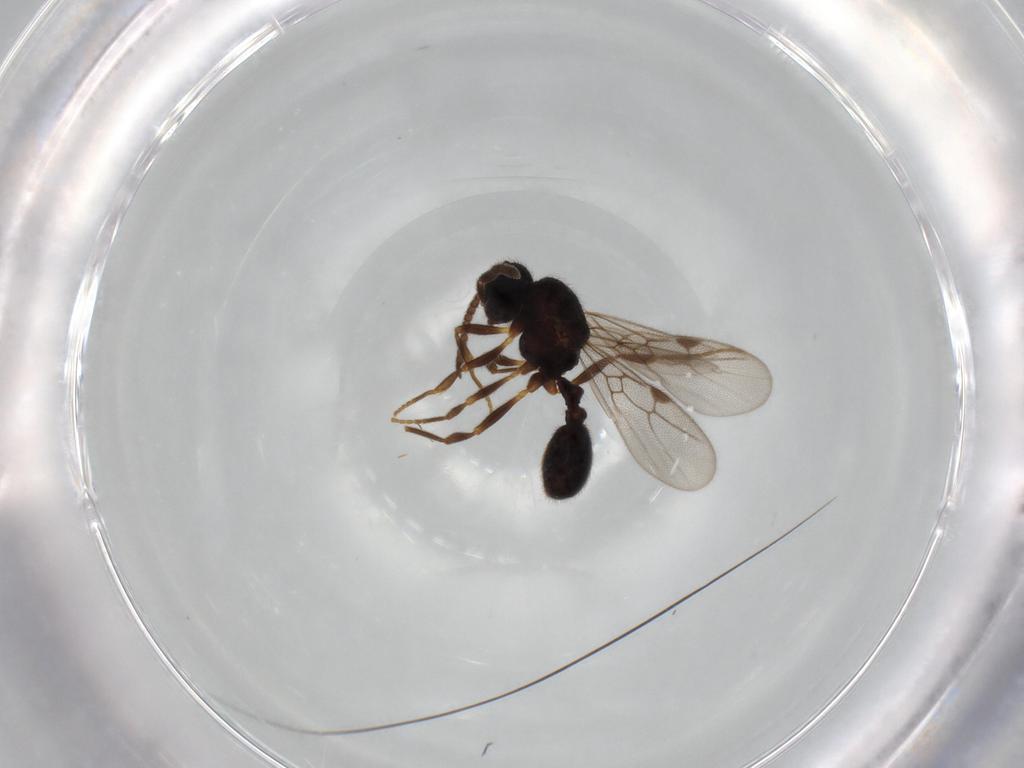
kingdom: Animalia
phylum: Arthropoda
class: Insecta
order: Hymenoptera
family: Formicidae
